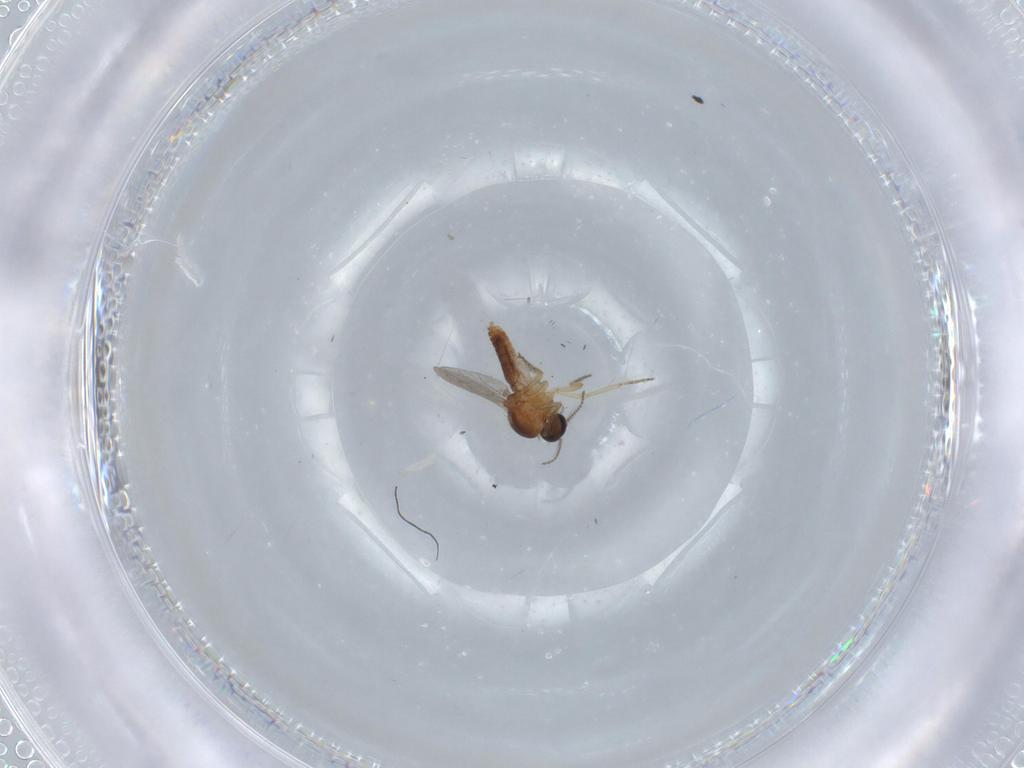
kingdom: Animalia
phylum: Arthropoda
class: Insecta
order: Diptera
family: Ceratopogonidae
